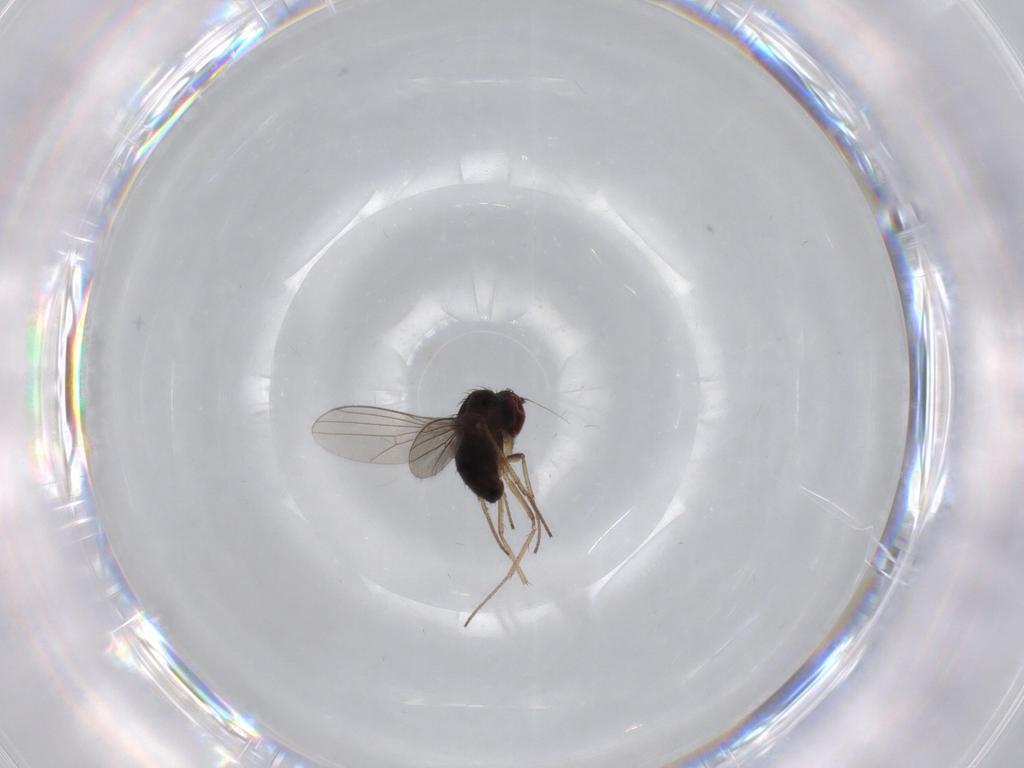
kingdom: Animalia
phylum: Arthropoda
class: Insecta
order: Diptera
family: Dolichopodidae
